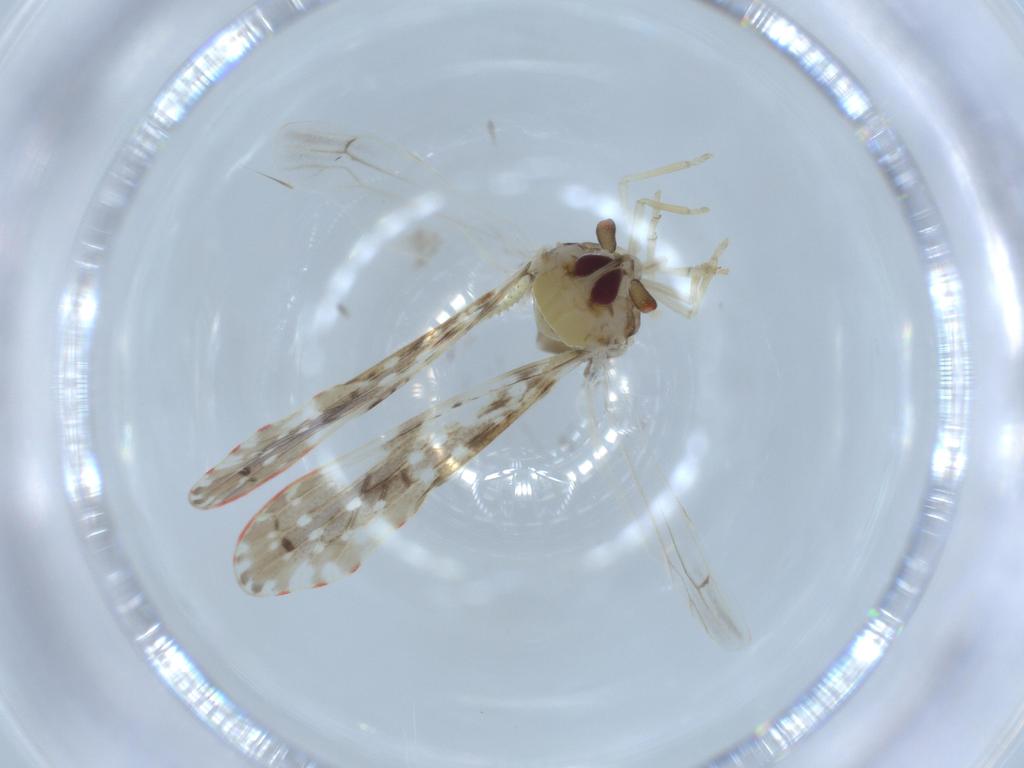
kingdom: Animalia
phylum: Arthropoda
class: Insecta
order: Hemiptera
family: Derbidae
